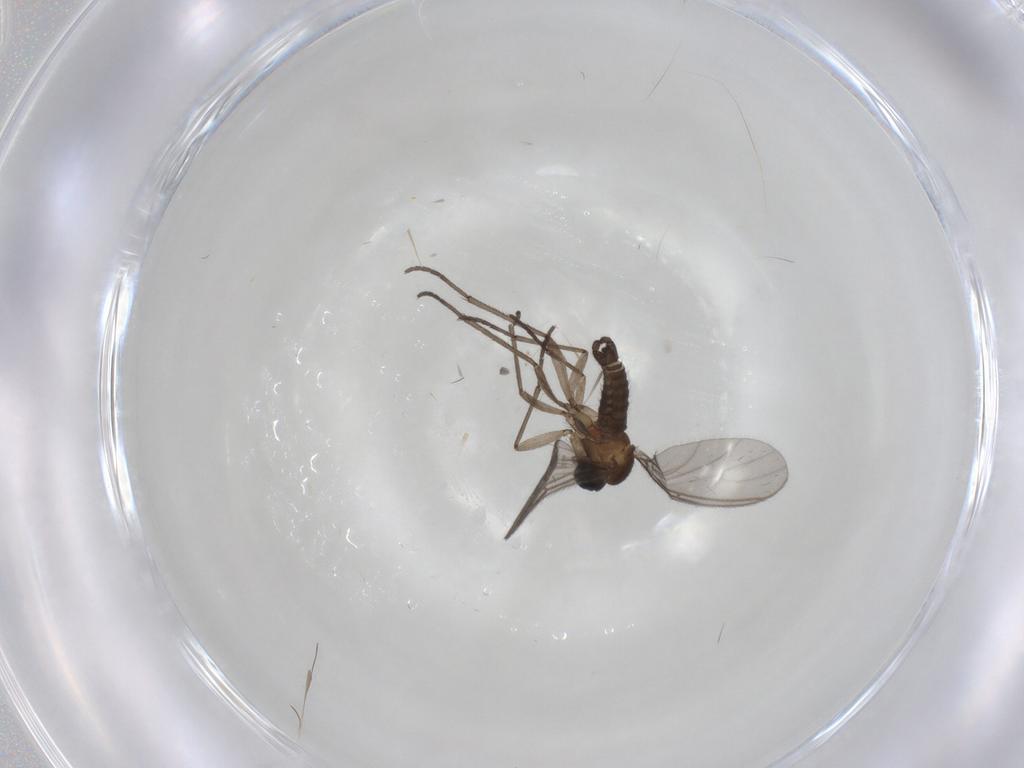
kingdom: Animalia
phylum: Arthropoda
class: Insecta
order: Diptera
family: Sciaridae
